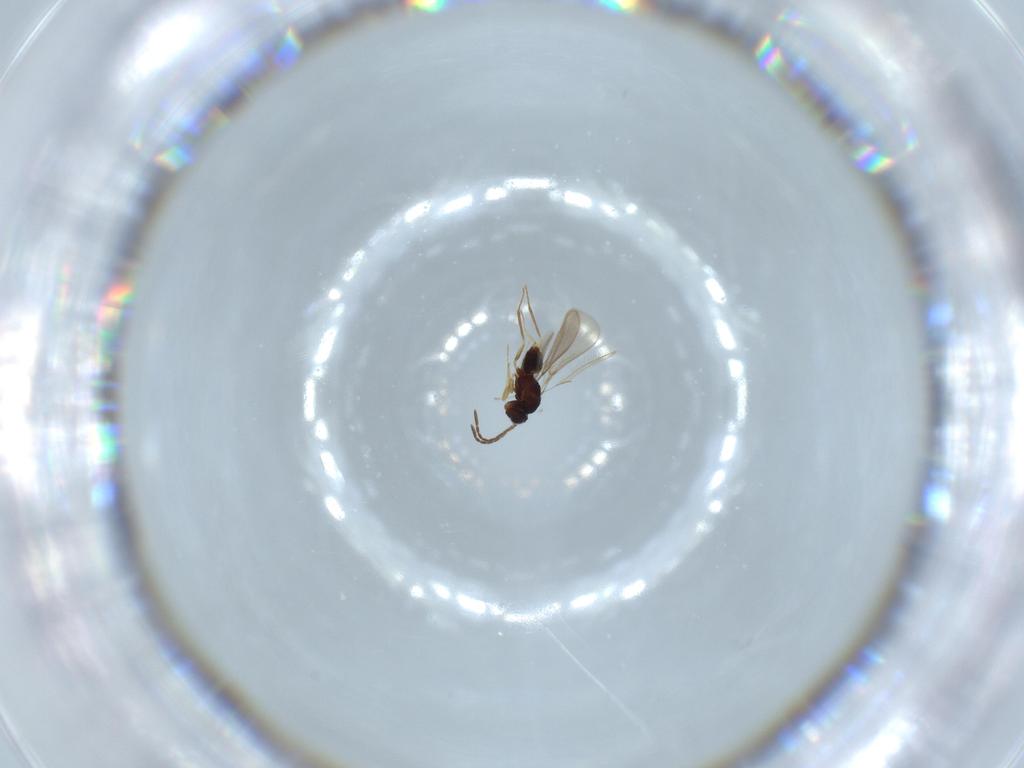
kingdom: Animalia
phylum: Arthropoda
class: Insecta
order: Hymenoptera
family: Mymaridae
